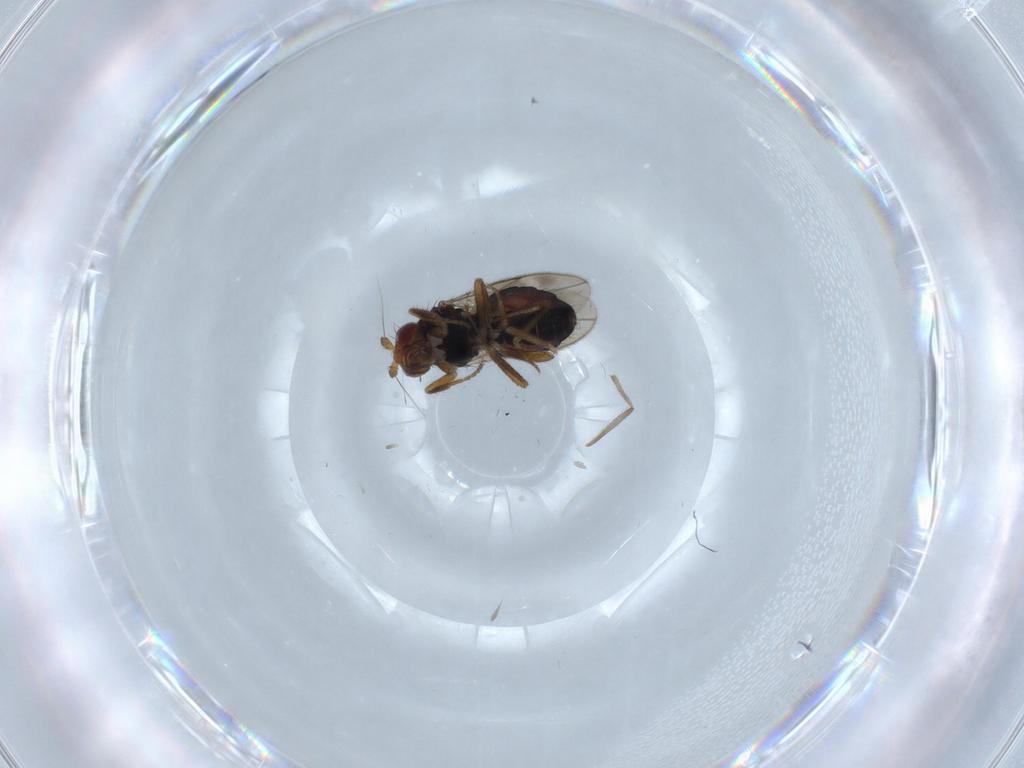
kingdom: Animalia
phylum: Arthropoda
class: Insecta
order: Diptera
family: Sphaeroceridae
